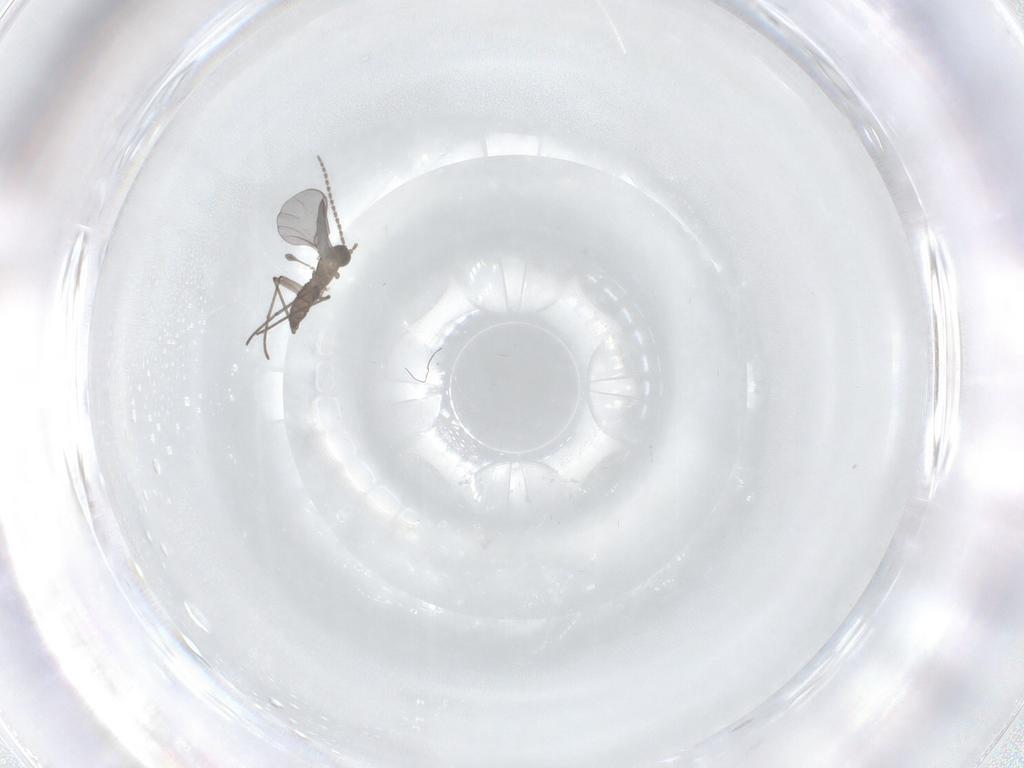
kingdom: Animalia
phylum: Arthropoda
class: Insecta
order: Diptera
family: Sciaridae
